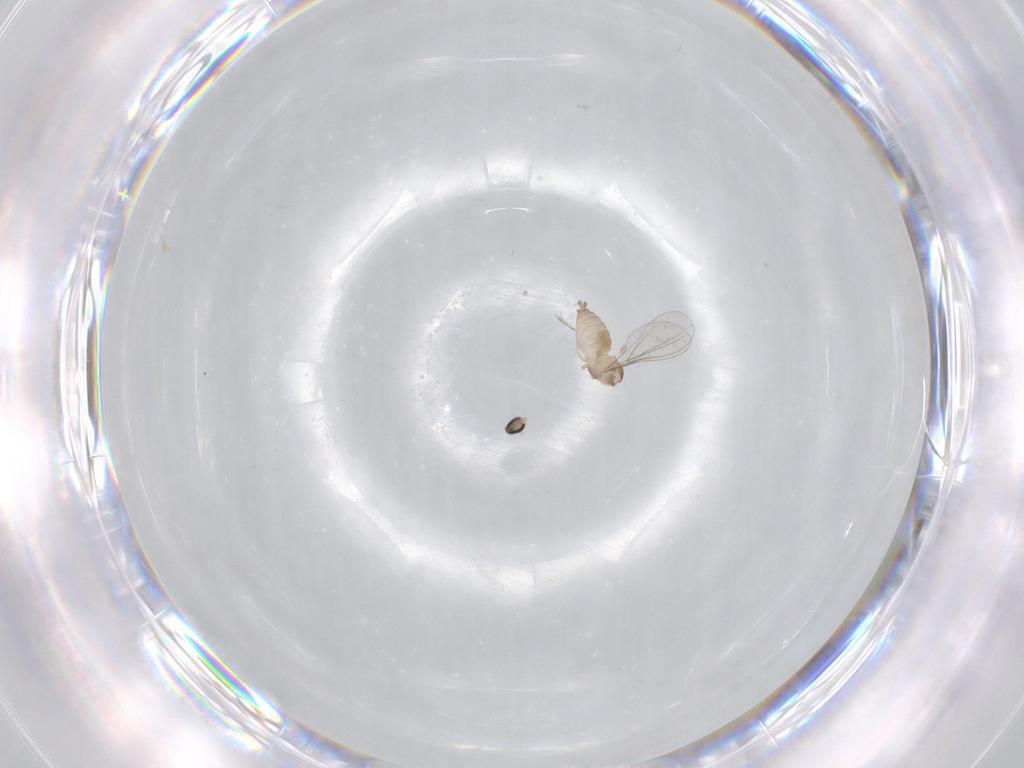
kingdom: Animalia
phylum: Arthropoda
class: Insecta
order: Diptera
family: Cecidomyiidae
